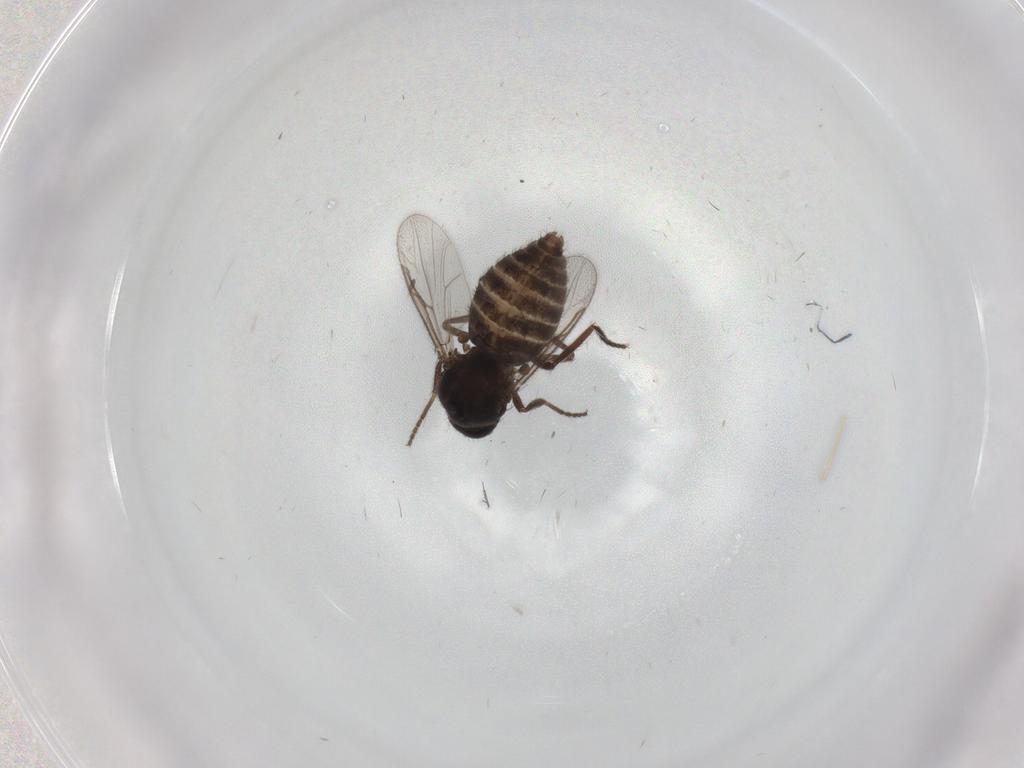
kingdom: Animalia
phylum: Arthropoda
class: Insecta
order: Diptera
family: Ceratopogonidae
